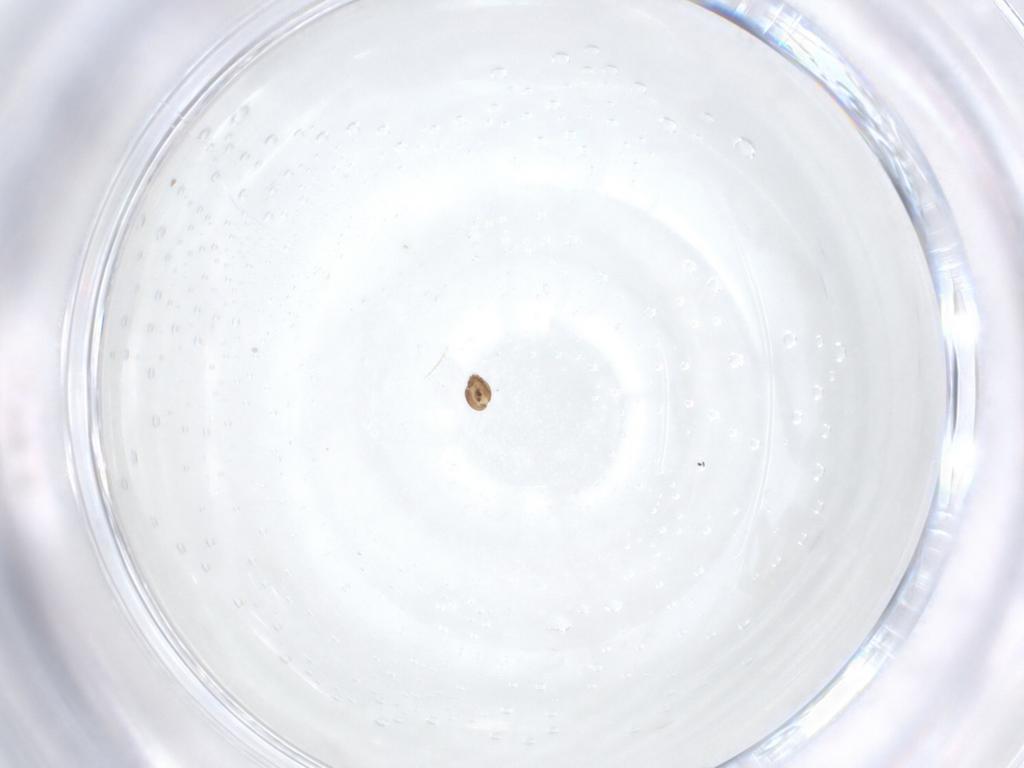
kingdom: Animalia
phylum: Arthropoda
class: Arachnida
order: Sarcoptiformes
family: Oribatellidae
